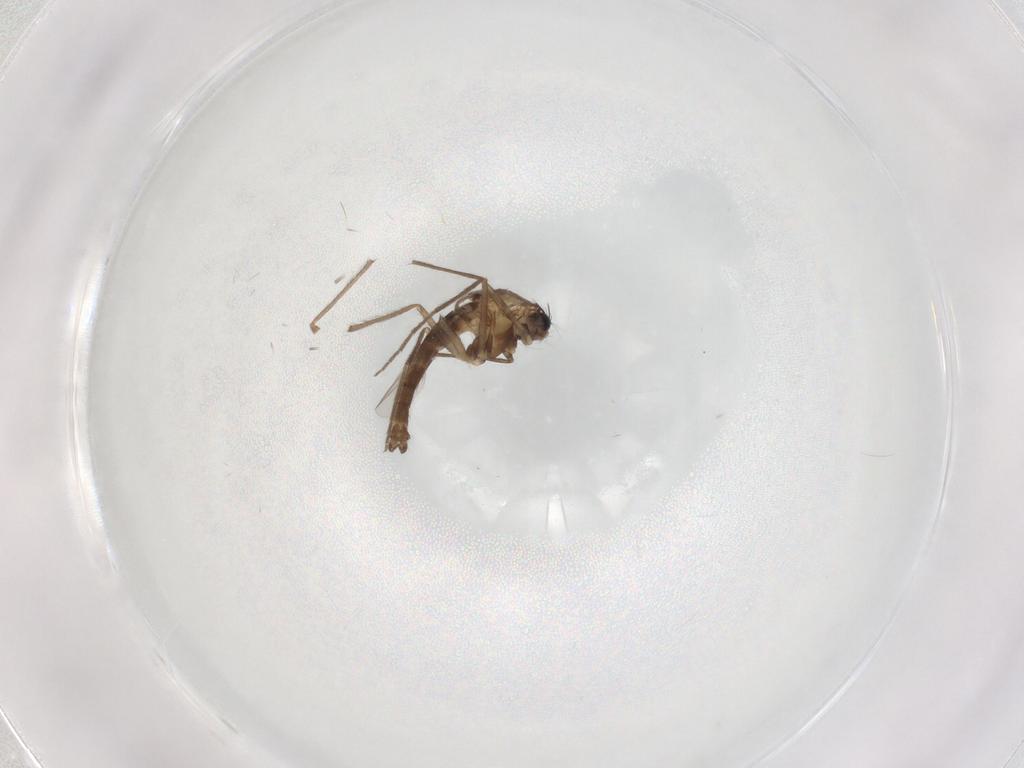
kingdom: Animalia
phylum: Arthropoda
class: Insecta
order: Diptera
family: Chironomidae
